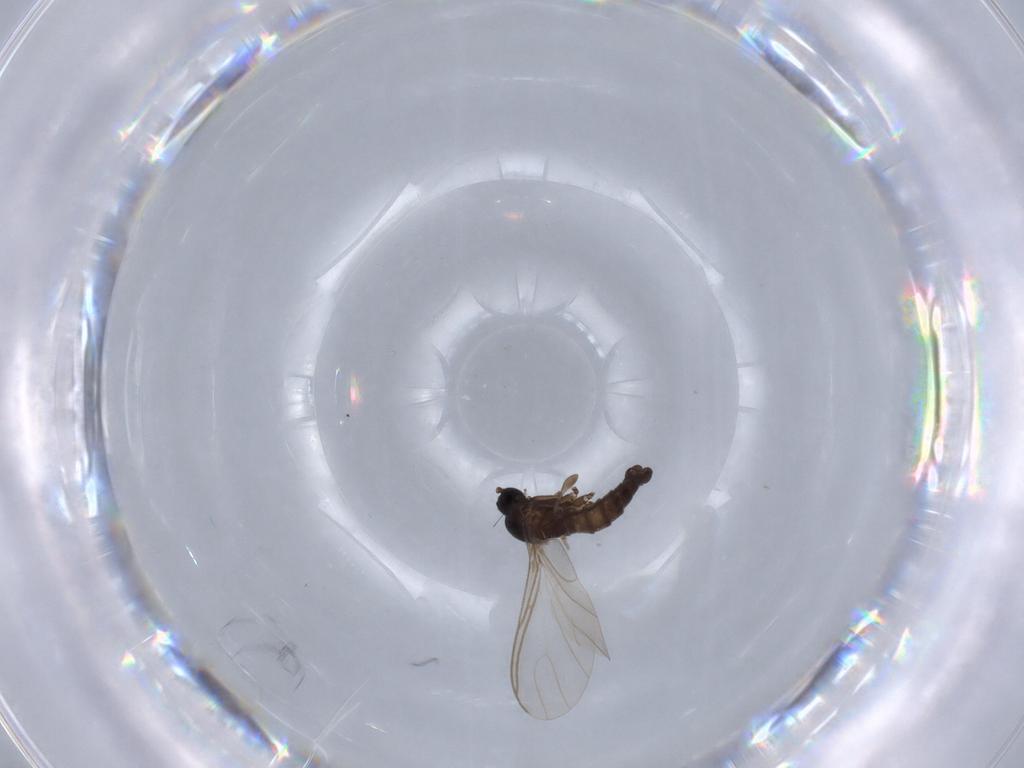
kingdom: Animalia
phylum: Arthropoda
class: Insecta
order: Diptera
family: Sciaridae
